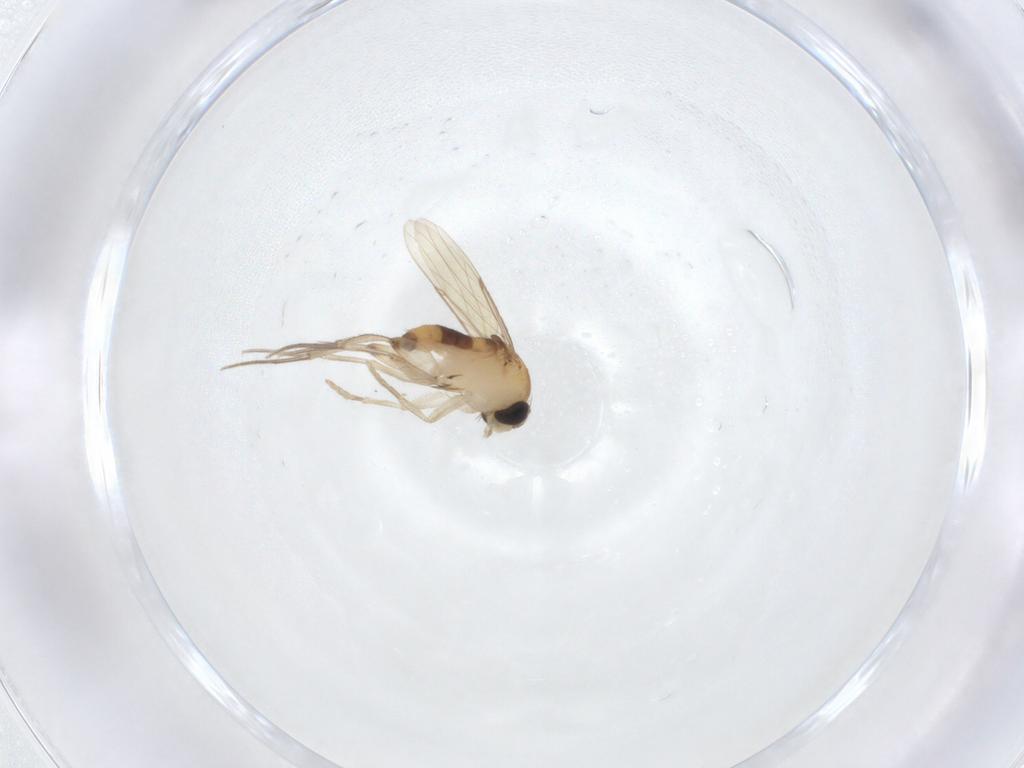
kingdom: Animalia
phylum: Arthropoda
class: Insecta
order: Diptera
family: Phoridae
